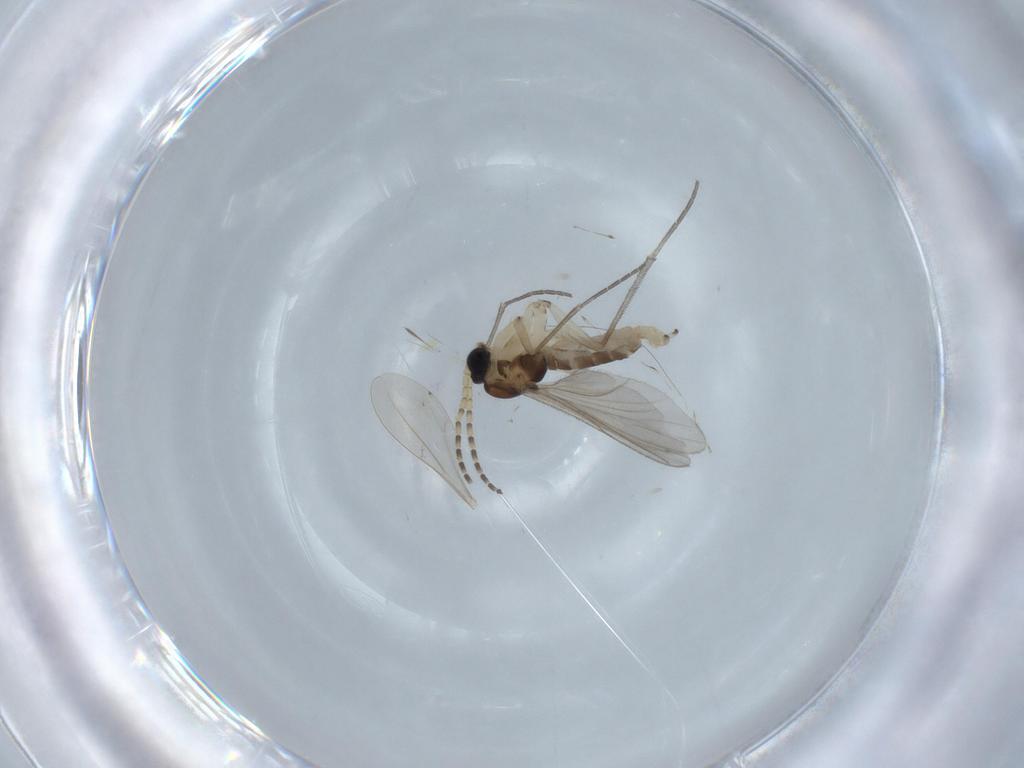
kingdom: Animalia
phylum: Arthropoda
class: Insecta
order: Diptera
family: Sciaridae
